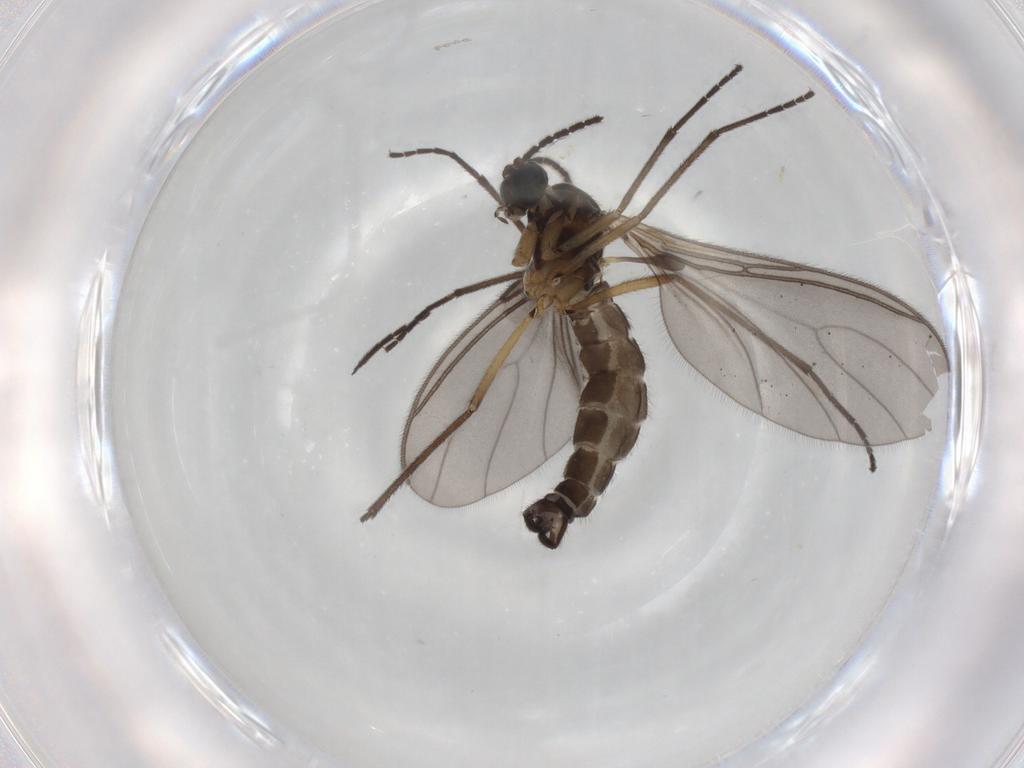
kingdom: Animalia
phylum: Arthropoda
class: Insecta
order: Diptera
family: Sciaridae
